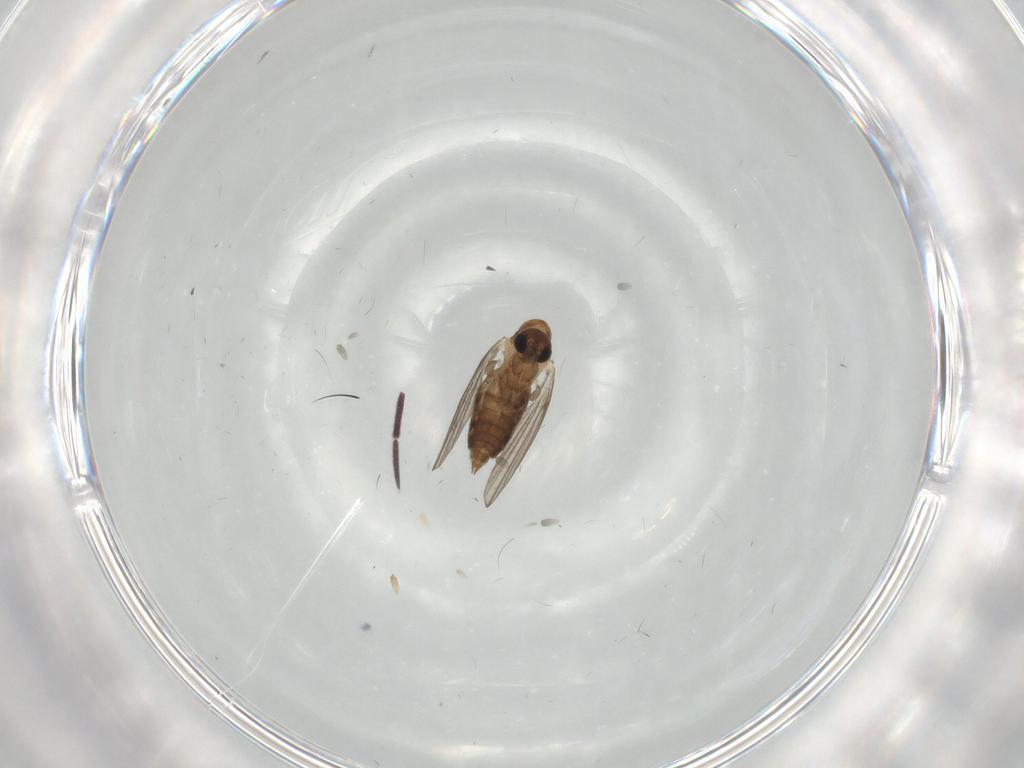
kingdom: Animalia
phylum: Arthropoda
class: Insecta
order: Diptera
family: Psychodidae
